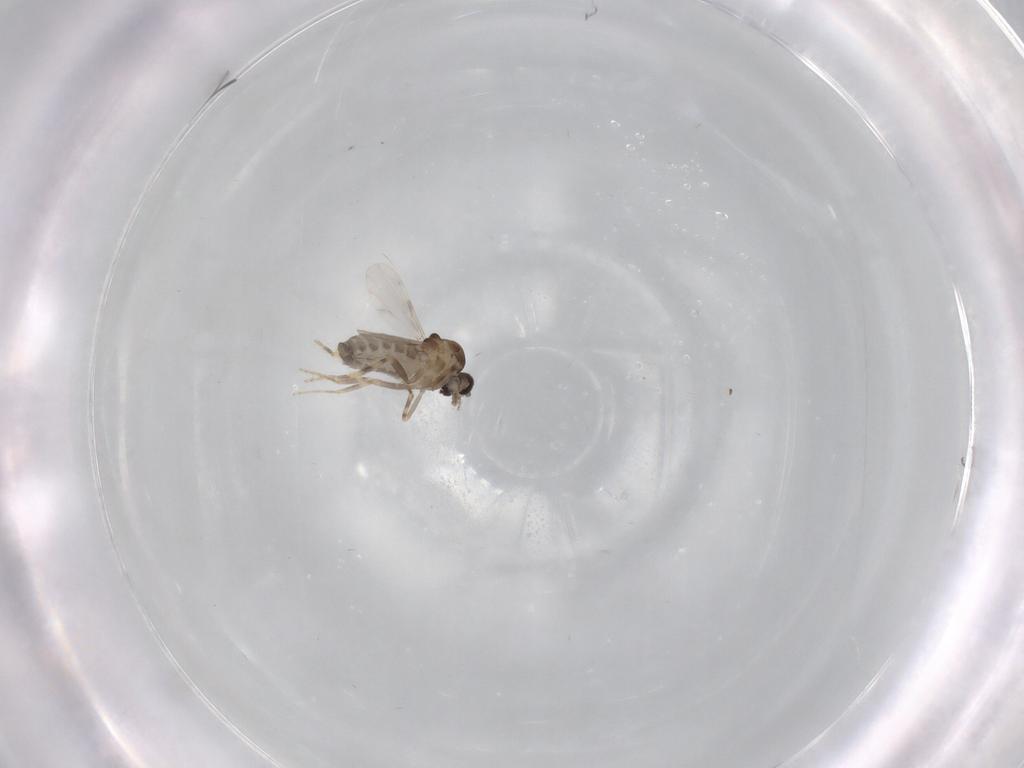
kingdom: Animalia
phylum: Arthropoda
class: Insecta
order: Diptera
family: Ceratopogonidae
